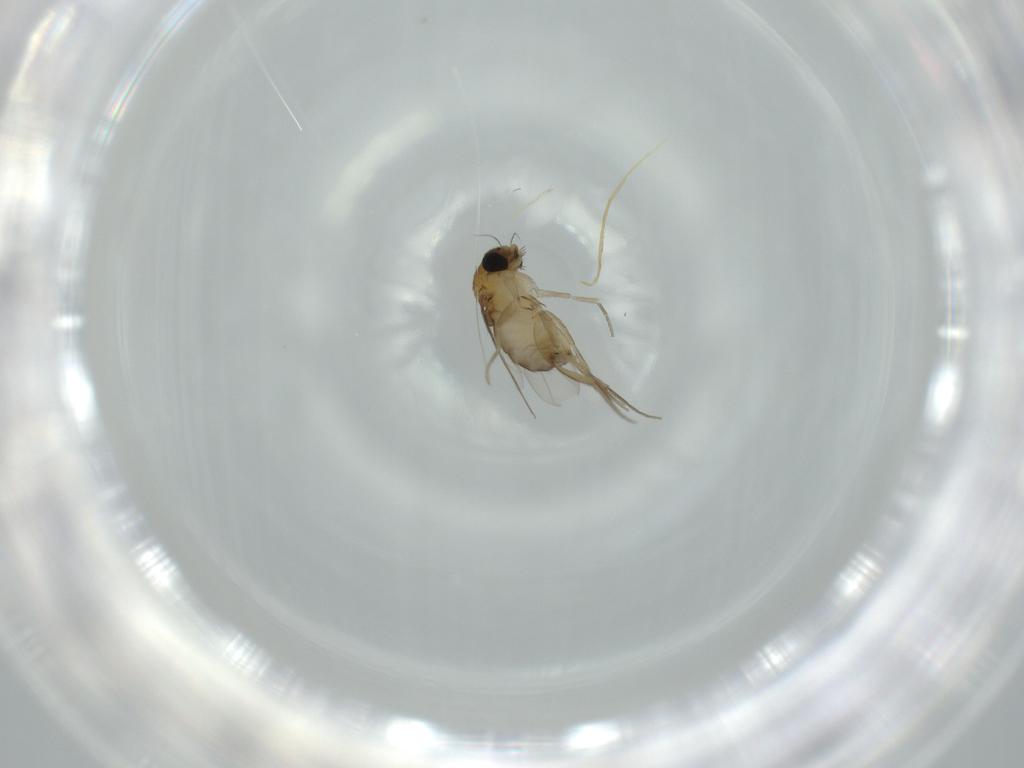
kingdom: Animalia
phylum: Arthropoda
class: Insecta
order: Diptera
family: Phoridae
